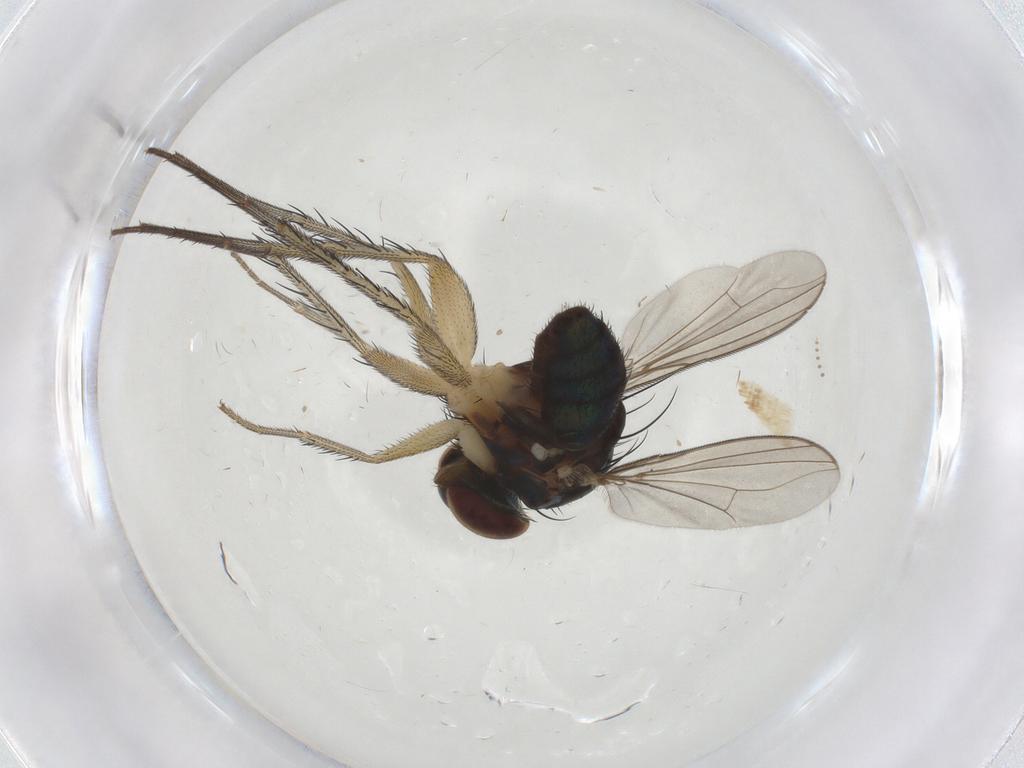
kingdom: Animalia
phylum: Arthropoda
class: Insecta
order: Diptera
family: Dolichopodidae
